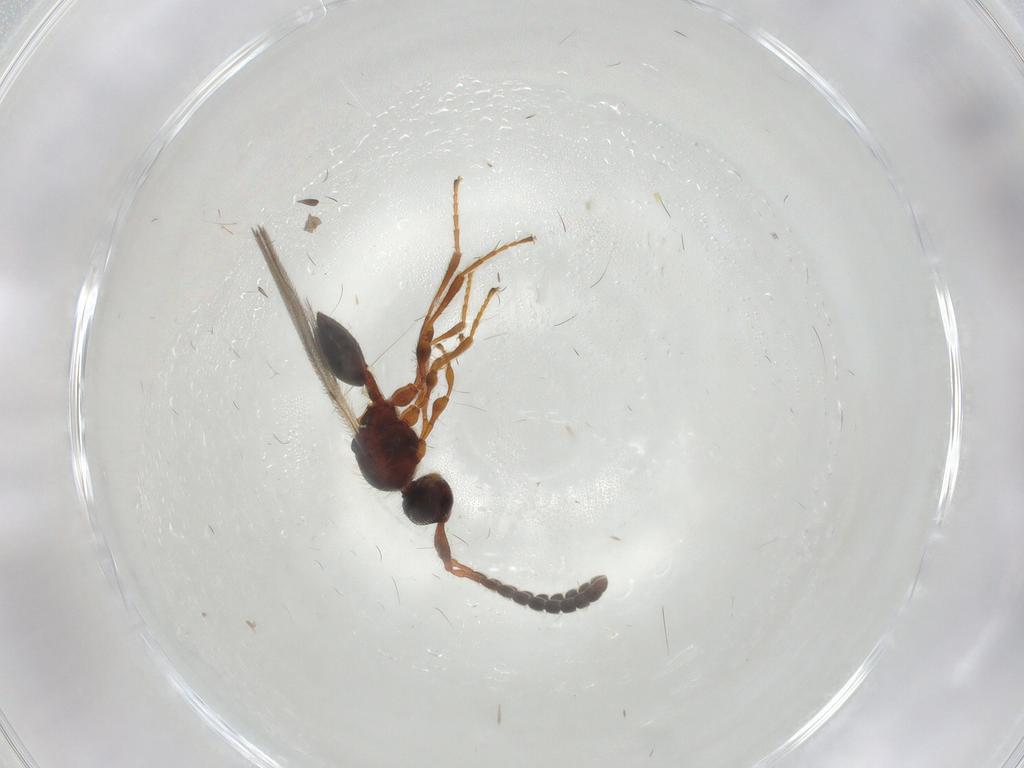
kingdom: Animalia
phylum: Arthropoda
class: Insecta
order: Hymenoptera
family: Diapriidae
